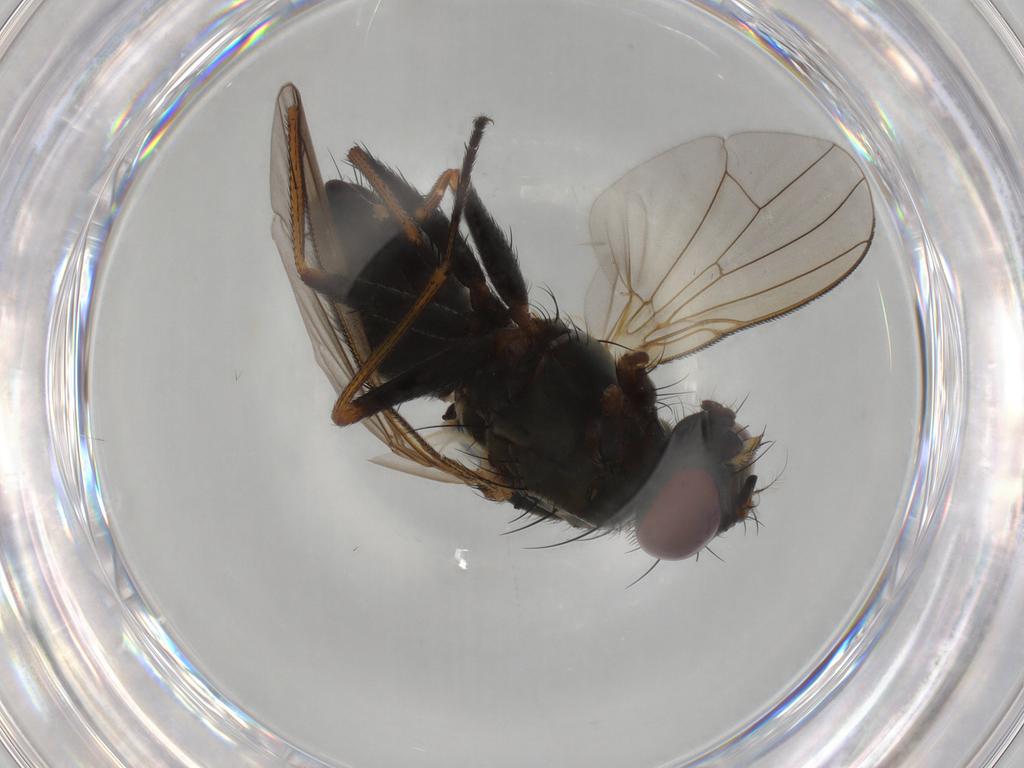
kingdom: Animalia
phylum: Arthropoda
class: Insecta
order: Diptera
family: Muscidae
